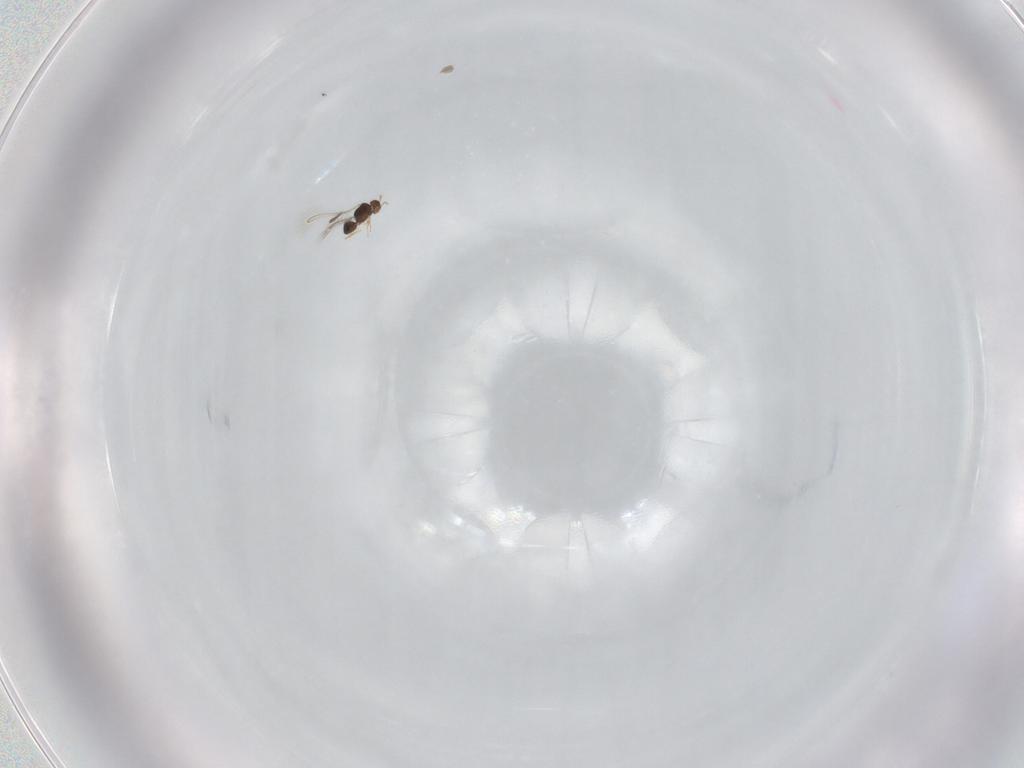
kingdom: Animalia
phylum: Arthropoda
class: Insecta
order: Hymenoptera
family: Braconidae
